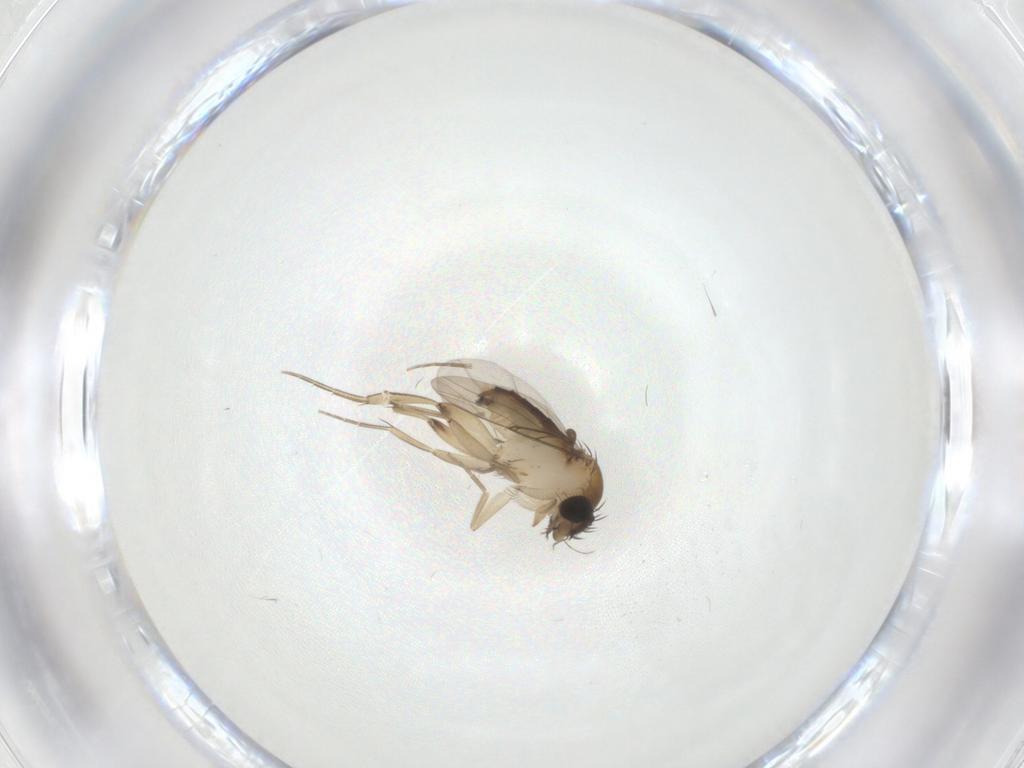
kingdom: Animalia
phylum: Arthropoda
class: Insecta
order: Diptera
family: Phoridae
